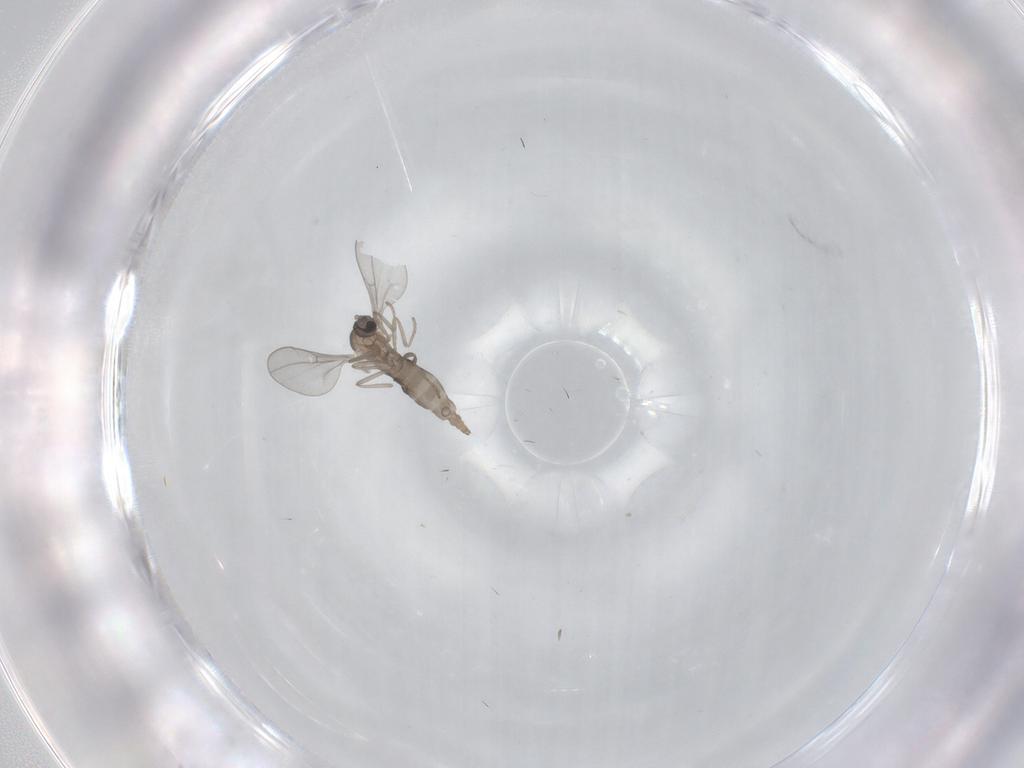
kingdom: Animalia
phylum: Arthropoda
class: Insecta
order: Diptera
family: Cecidomyiidae
